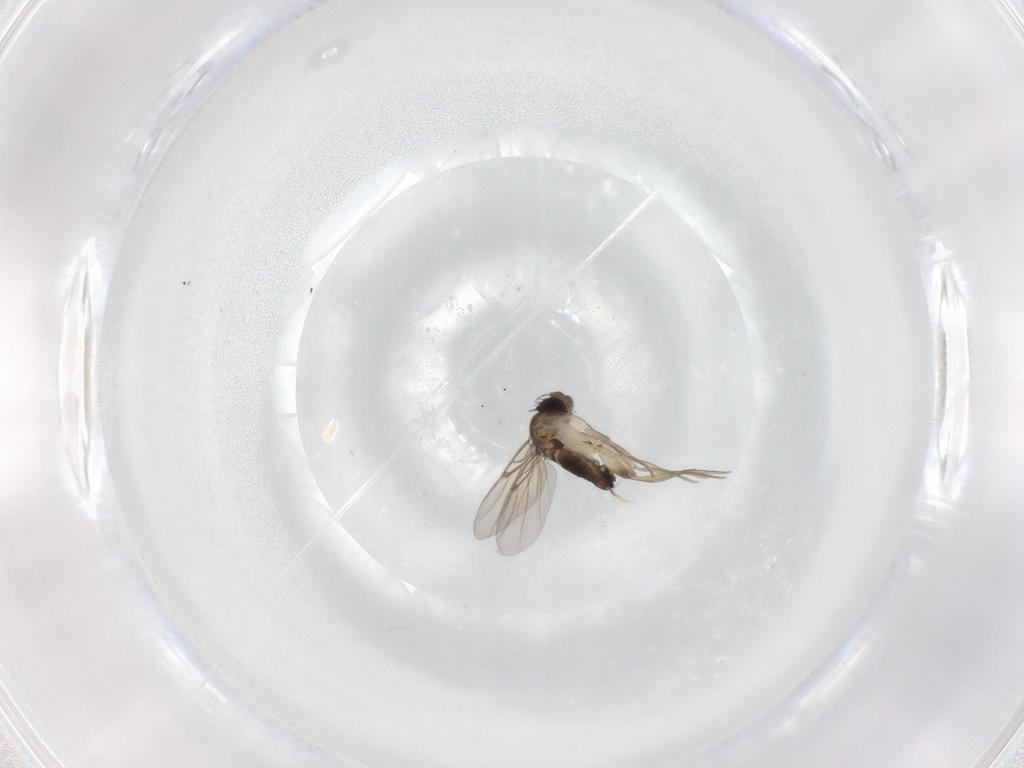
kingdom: Animalia
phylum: Arthropoda
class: Insecta
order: Diptera
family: Phoridae
